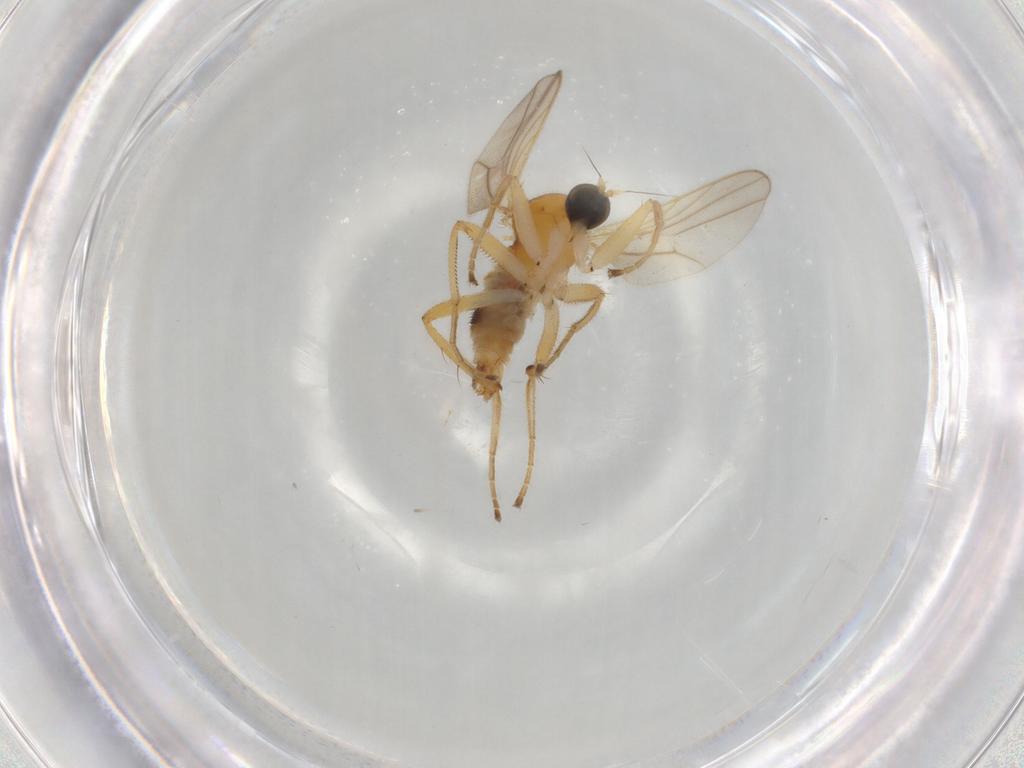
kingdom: Animalia
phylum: Arthropoda
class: Insecta
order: Diptera
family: Hybotidae
